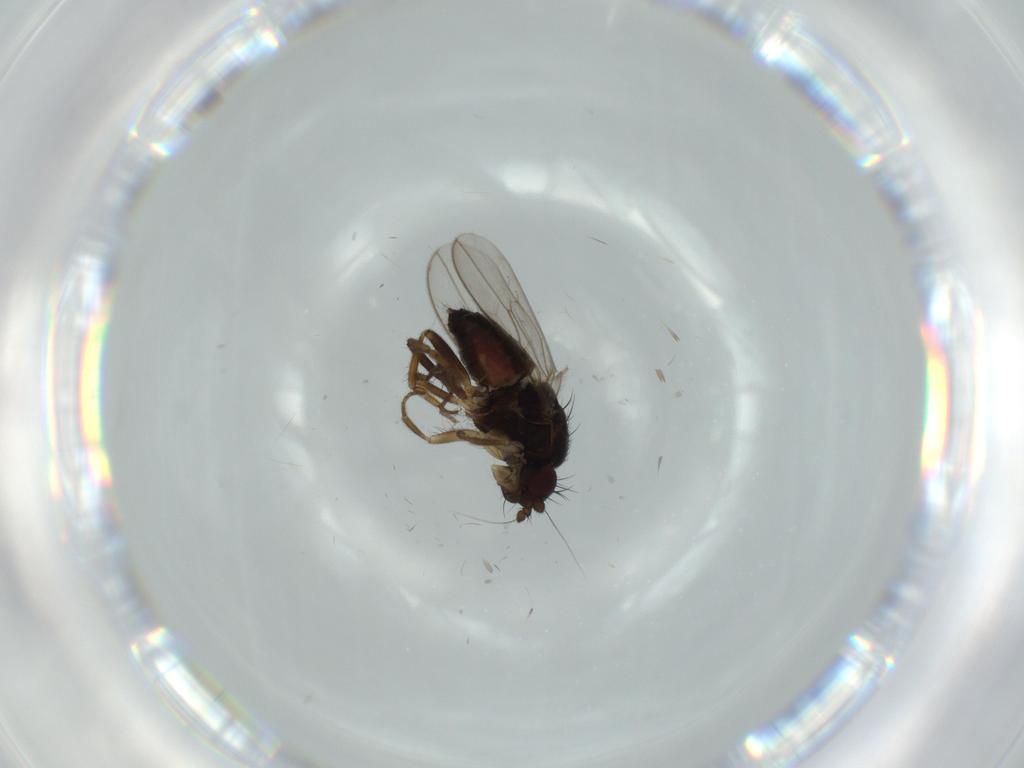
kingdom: Animalia
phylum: Arthropoda
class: Insecta
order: Diptera
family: Sphaeroceridae
